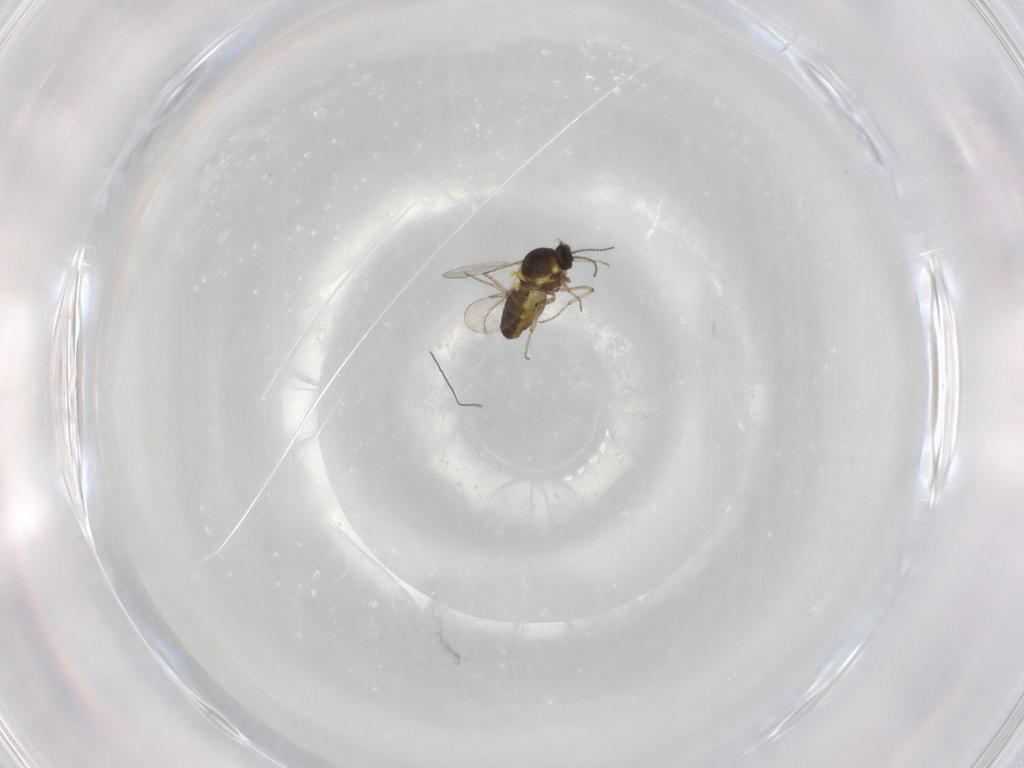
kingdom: Animalia
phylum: Arthropoda
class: Insecta
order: Diptera
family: Ceratopogonidae
